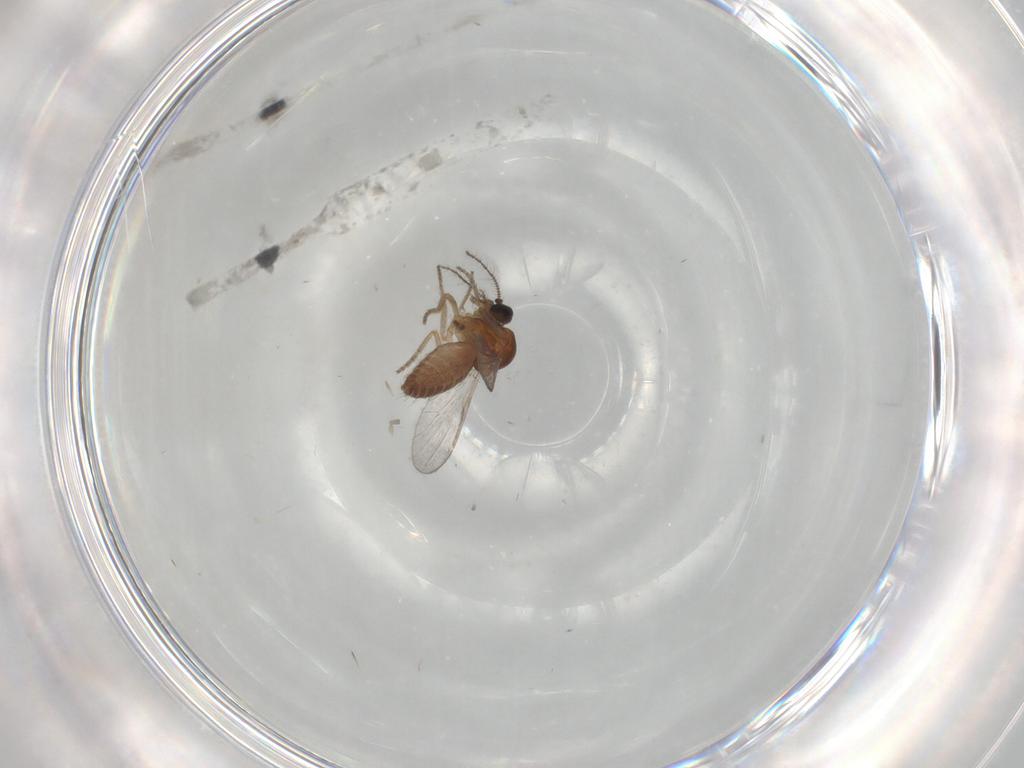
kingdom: Animalia
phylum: Arthropoda
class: Insecta
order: Diptera
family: Ceratopogonidae
